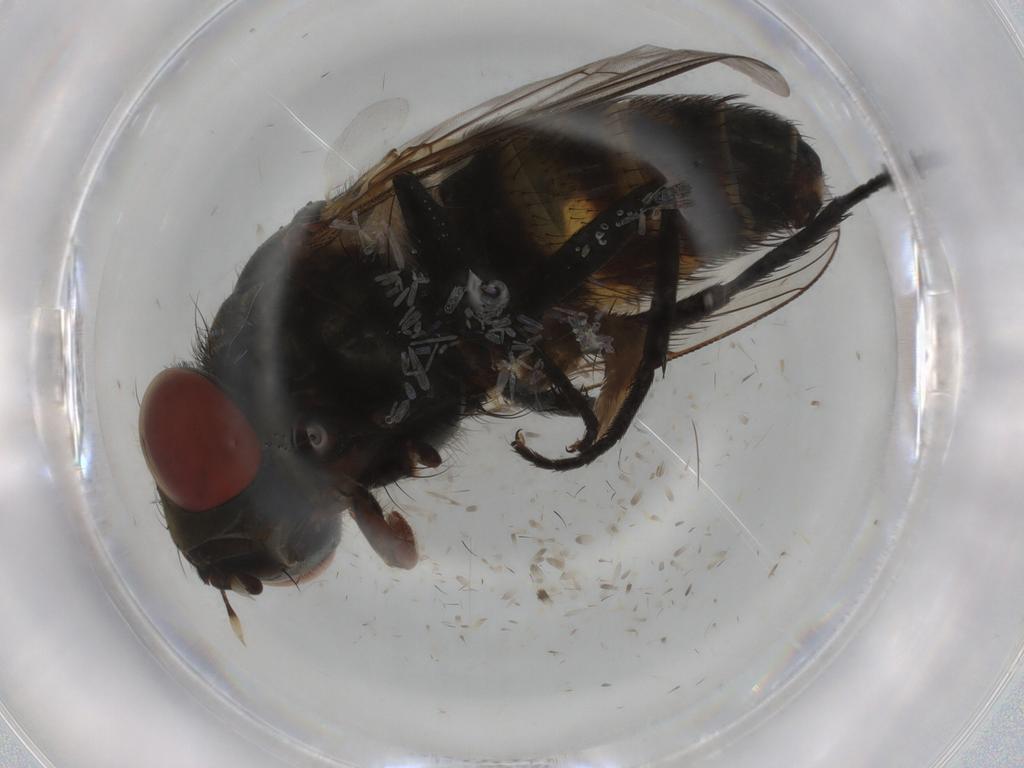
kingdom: Animalia
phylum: Arthropoda
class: Insecta
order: Diptera
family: Sarcophagidae
